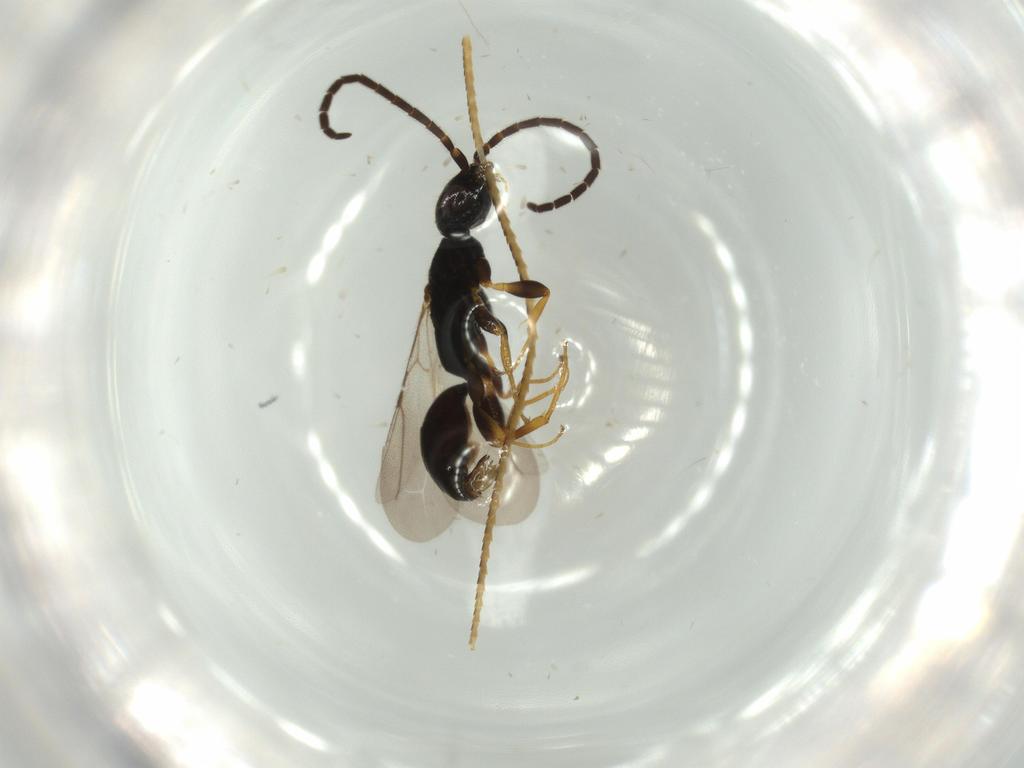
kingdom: Animalia
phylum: Arthropoda
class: Insecta
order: Hymenoptera
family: Bethylidae
